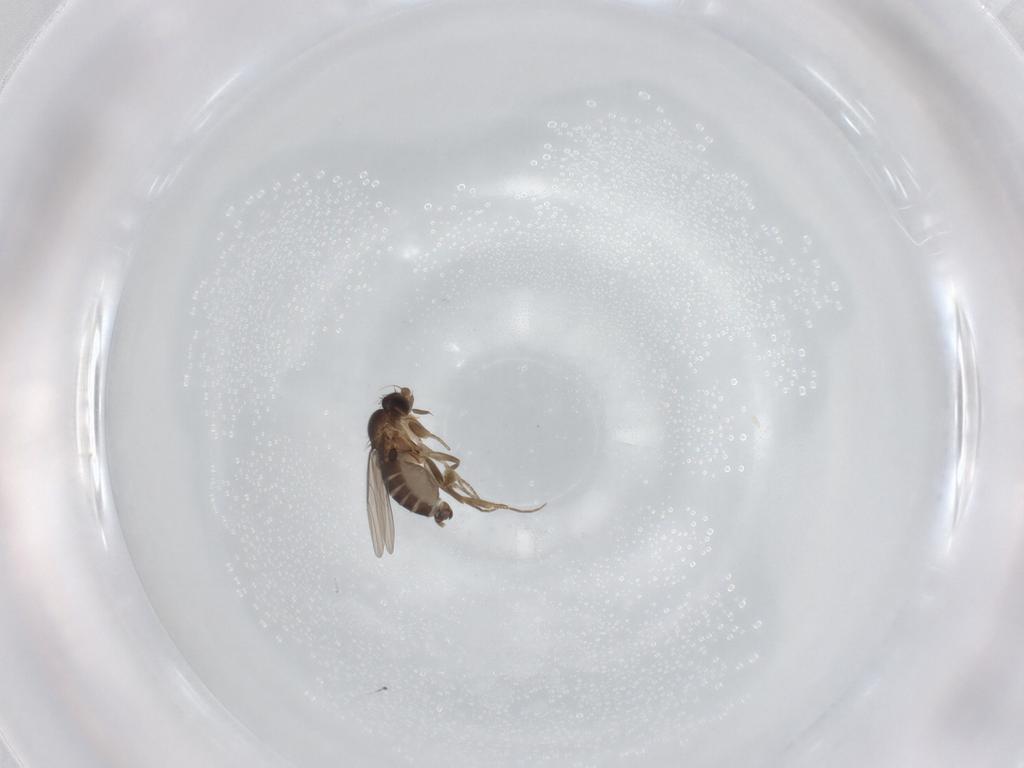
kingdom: Animalia
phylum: Arthropoda
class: Insecta
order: Diptera
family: Phoridae
